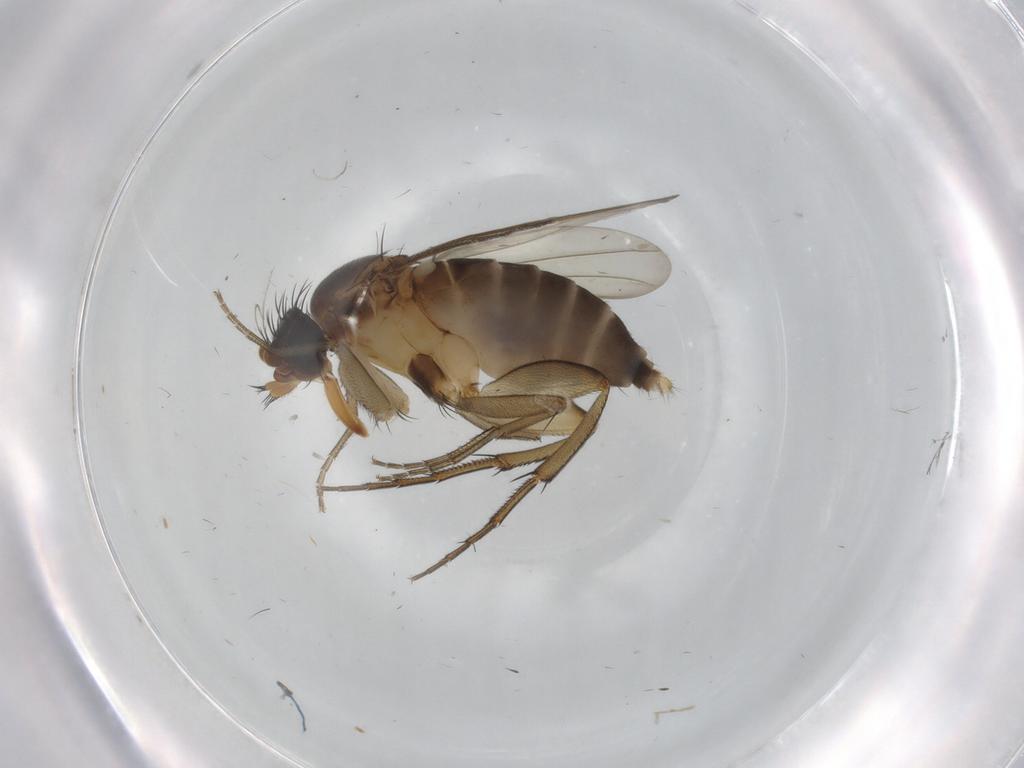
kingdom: Animalia
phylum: Arthropoda
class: Insecta
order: Diptera
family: Phoridae
